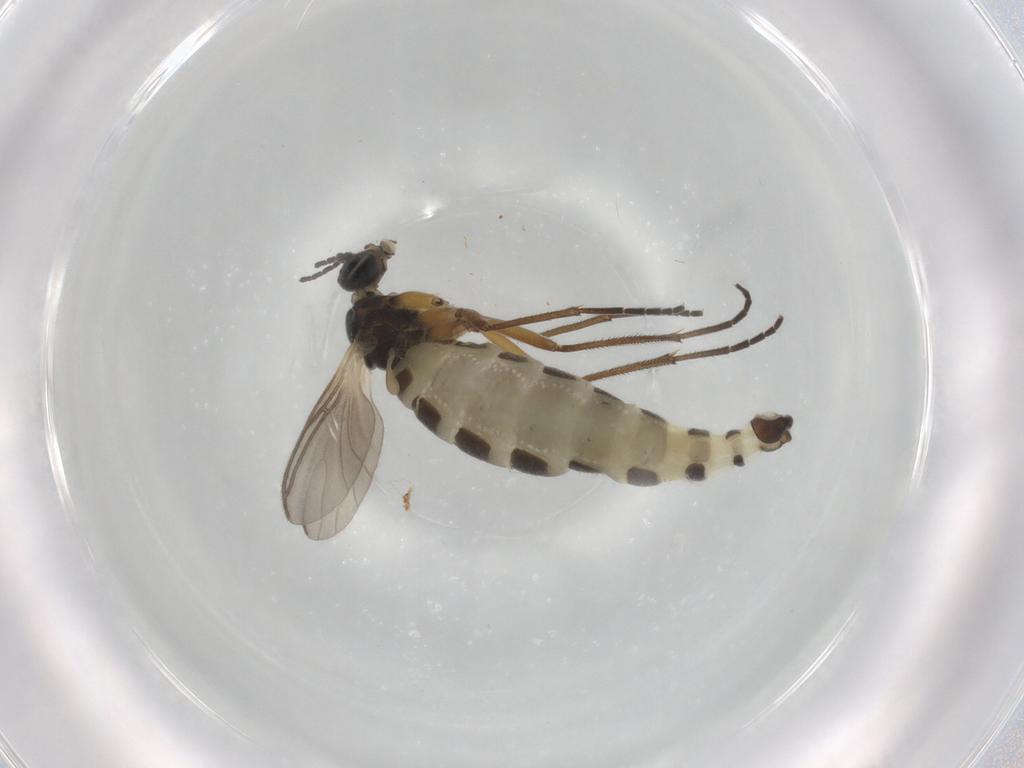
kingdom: Animalia
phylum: Arthropoda
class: Insecta
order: Diptera
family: Sciaridae
